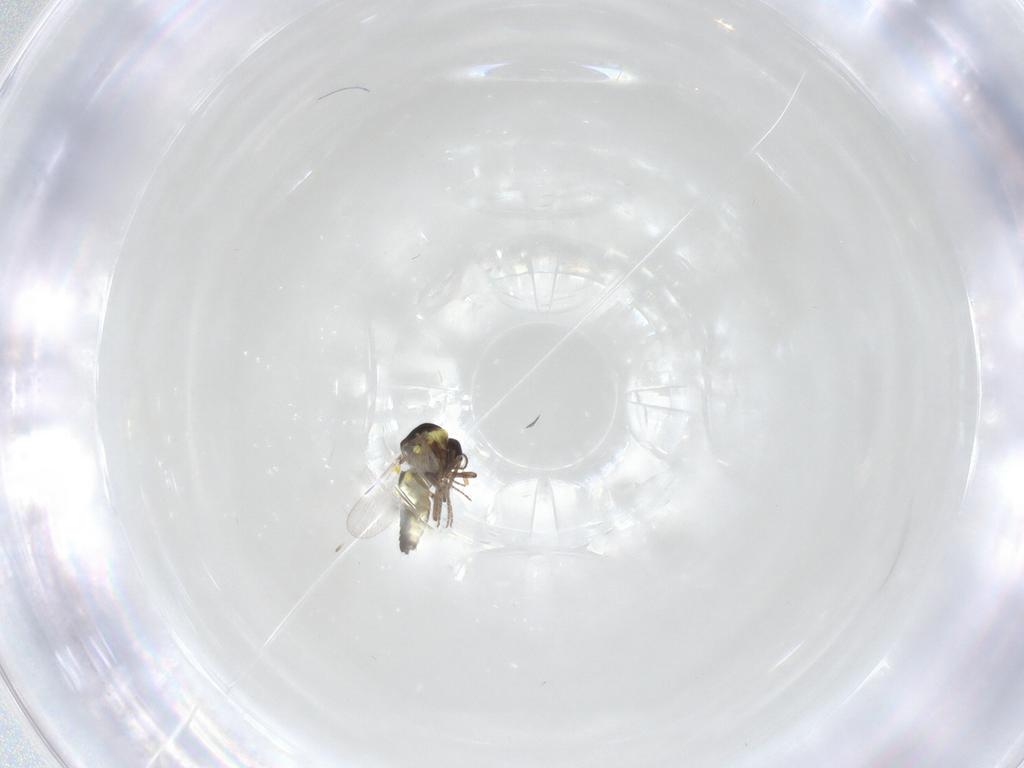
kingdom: Animalia
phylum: Arthropoda
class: Insecta
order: Diptera
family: Ceratopogonidae
